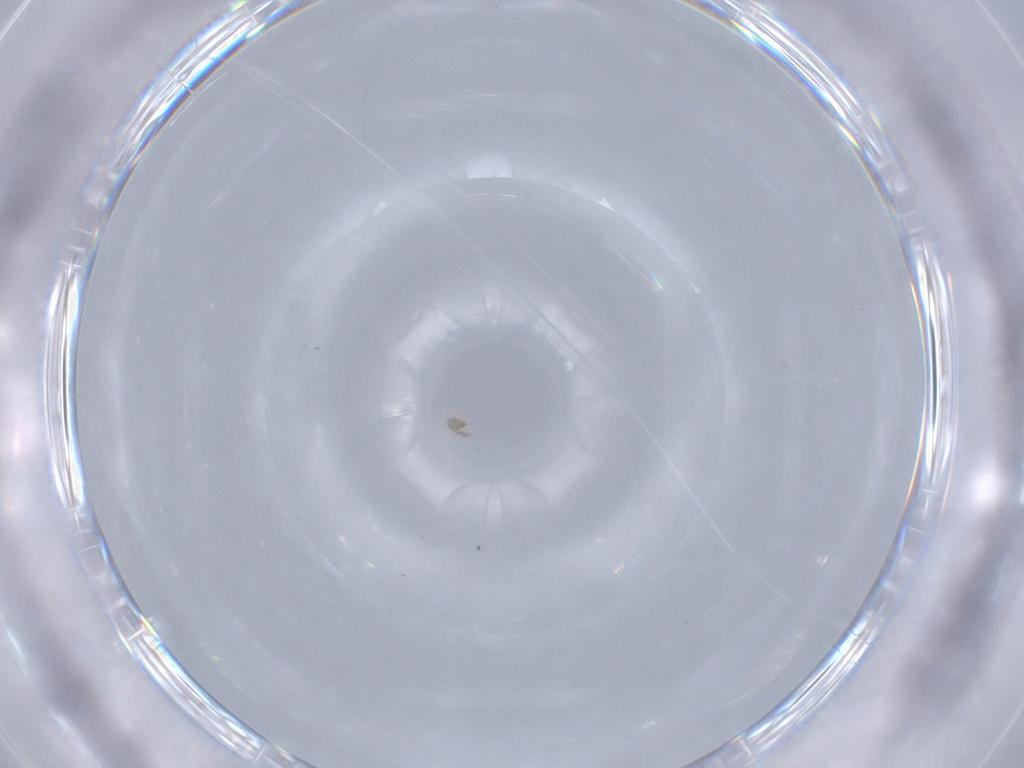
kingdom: Animalia
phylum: Arthropoda
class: Arachnida
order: Trombidiformes
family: Eupodidae
